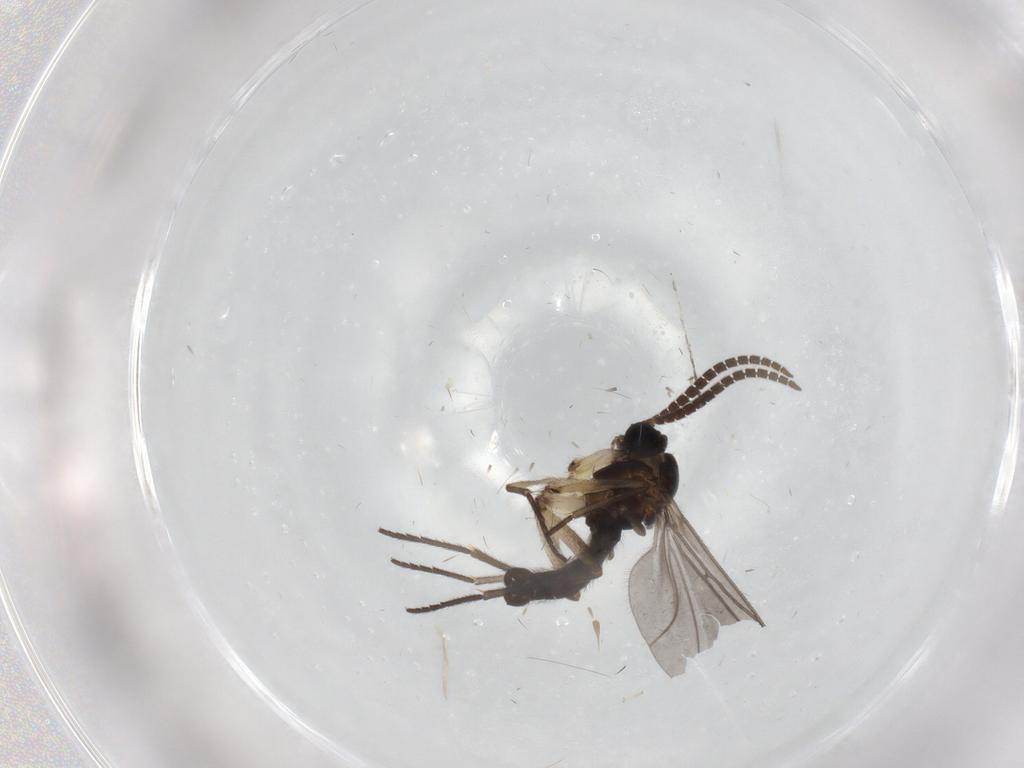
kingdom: Animalia
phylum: Arthropoda
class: Insecta
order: Diptera
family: Sciaridae
